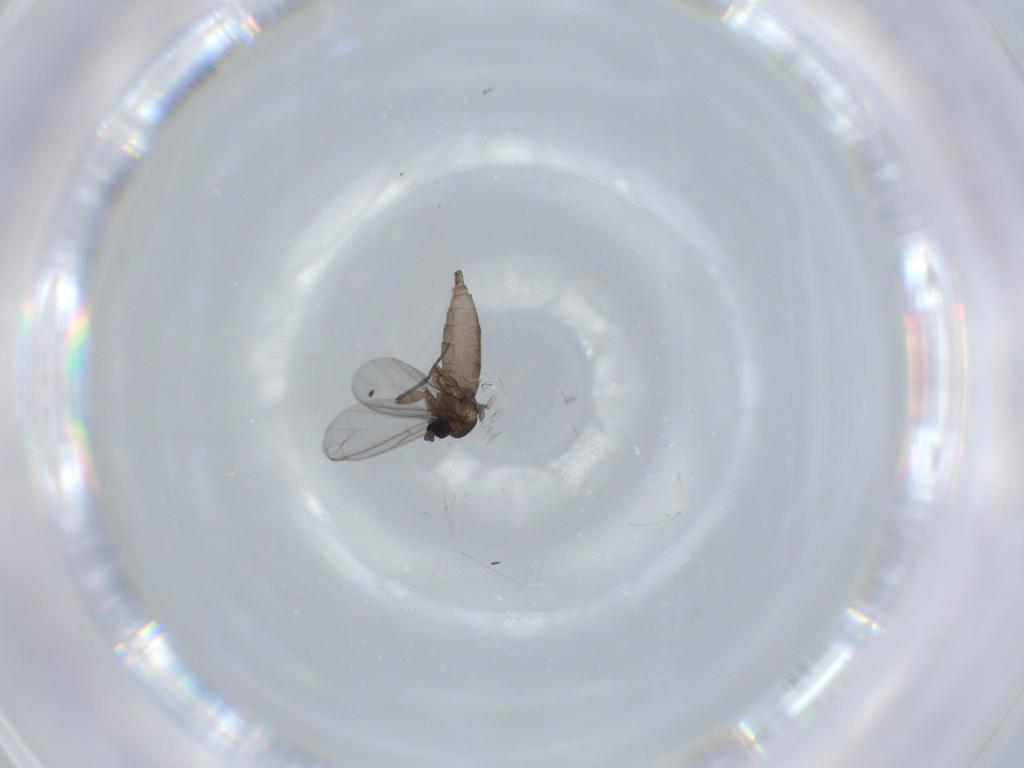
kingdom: Animalia
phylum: Arthropoda
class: Insecta
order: Diptera
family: Sciaridae
